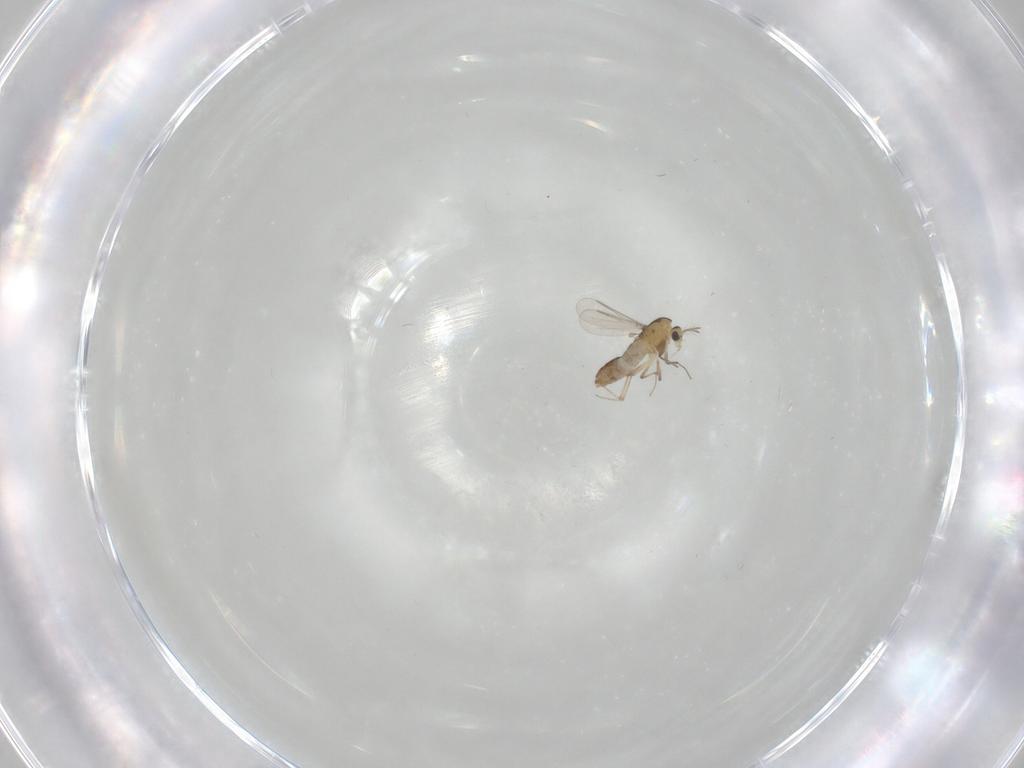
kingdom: Animalia
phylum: Arthropoda
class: Insecta
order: Diptera
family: Chironomidae
